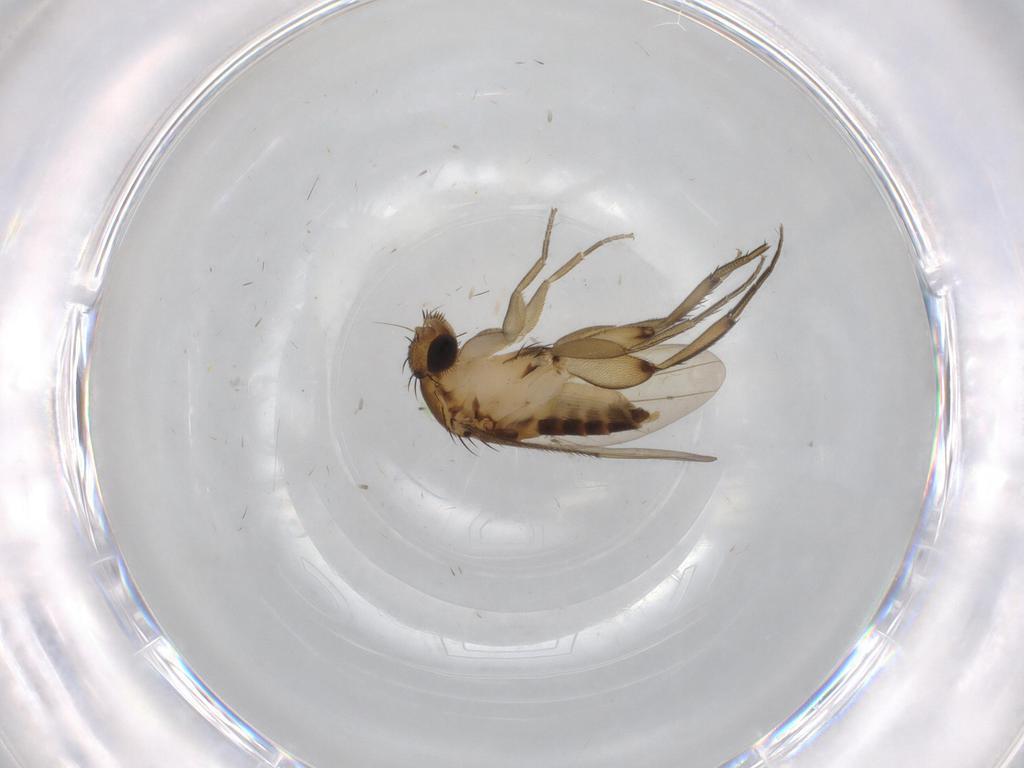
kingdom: Animalia
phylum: Arthropoda
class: Insecta
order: Diptera
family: Phoridae
